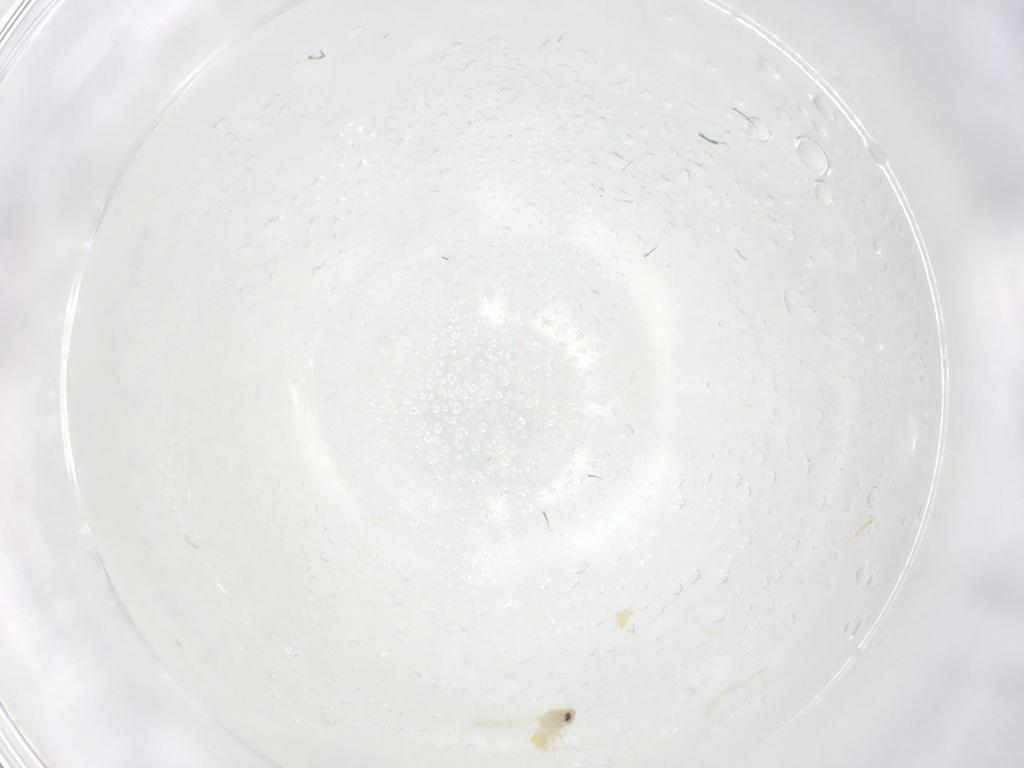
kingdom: Animalia
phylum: Arthropoda
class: Insecta
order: Hemiptera
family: Aleyrodidae
